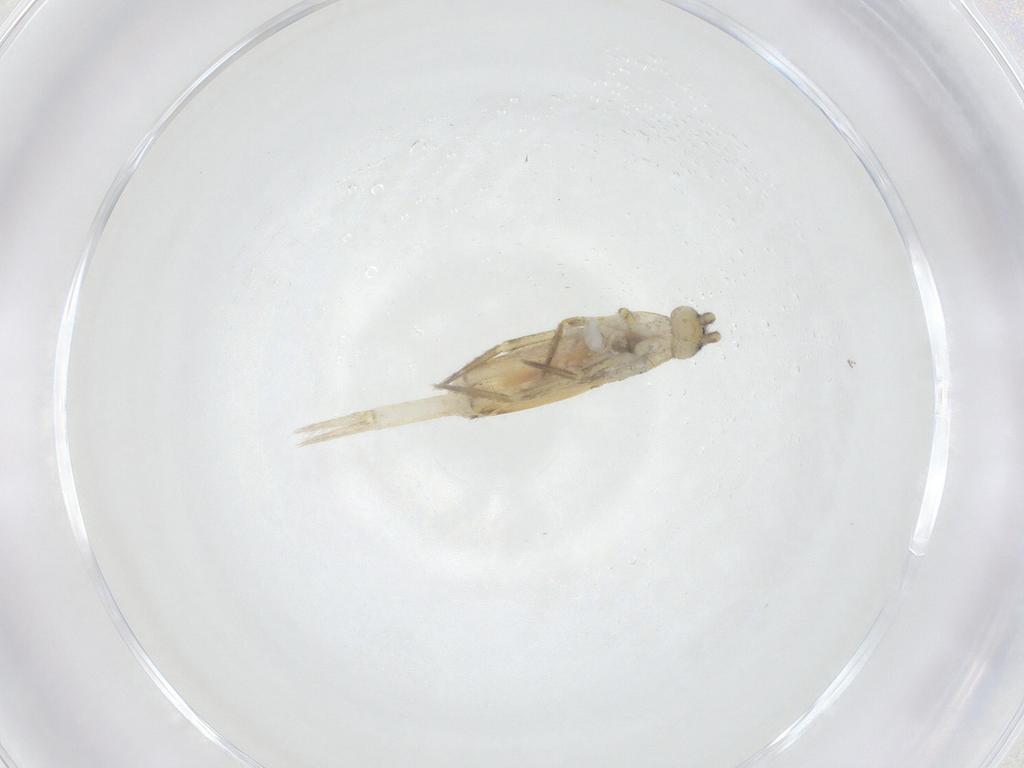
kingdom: Animalia
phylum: Arthropoda
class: Collembola
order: Entomobryomorpha
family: Entomobryidae
